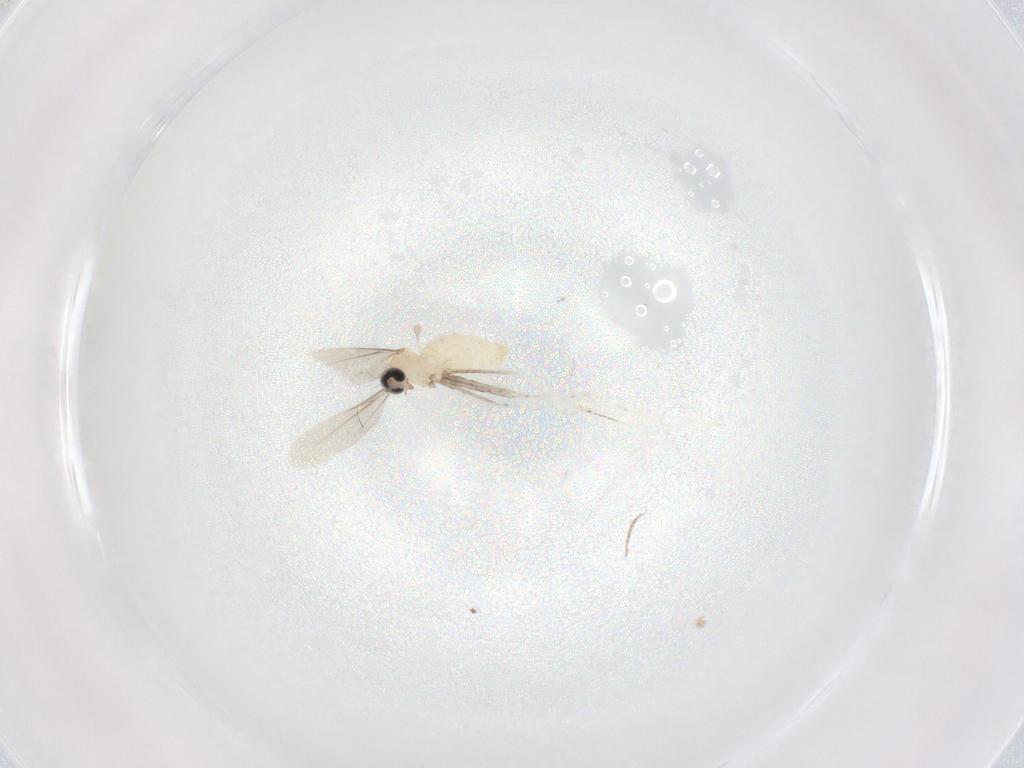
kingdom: Animalia
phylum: Arthropoda
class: Insecta
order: Diptera
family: Cecidomyiidae
